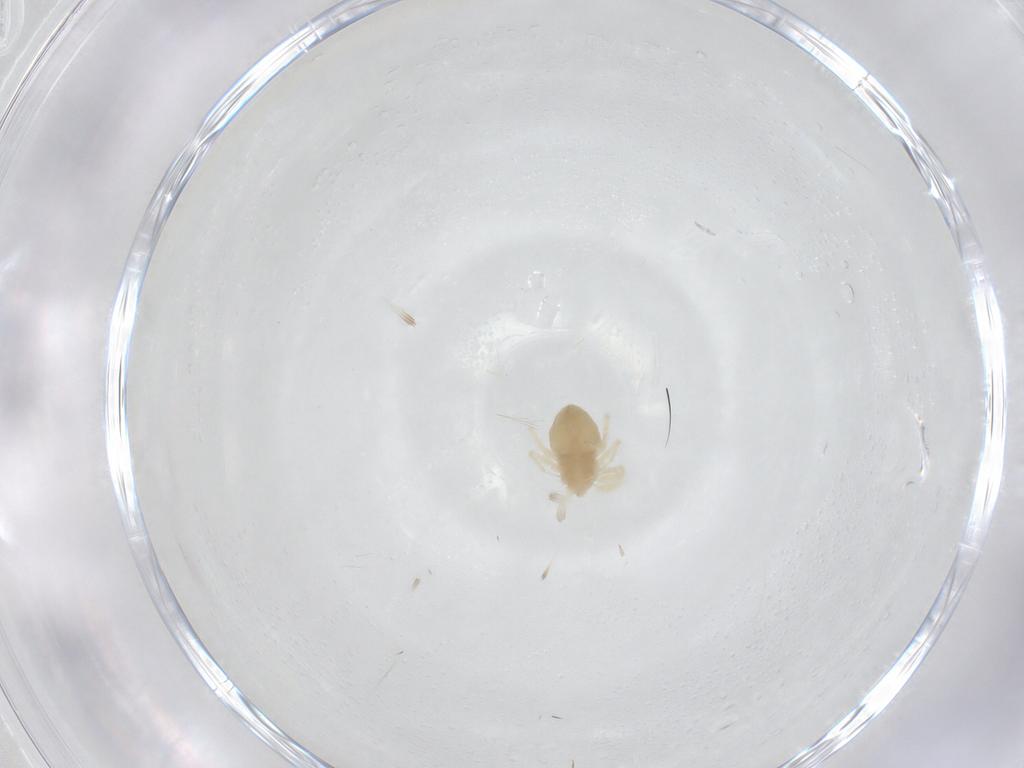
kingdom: Animalia
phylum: Arthropoda
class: Arachnida
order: Trombidiformes
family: Anystidae
